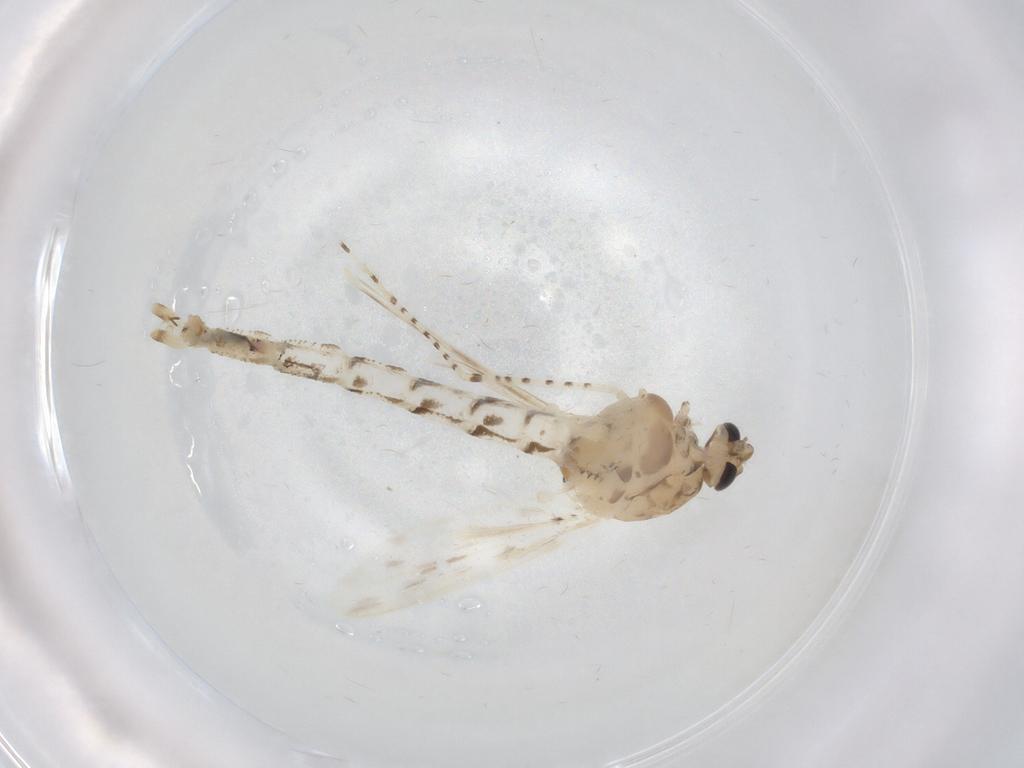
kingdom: Animalia
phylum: Arthropoda
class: Insecta
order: Diptera
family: Chaoboridae
